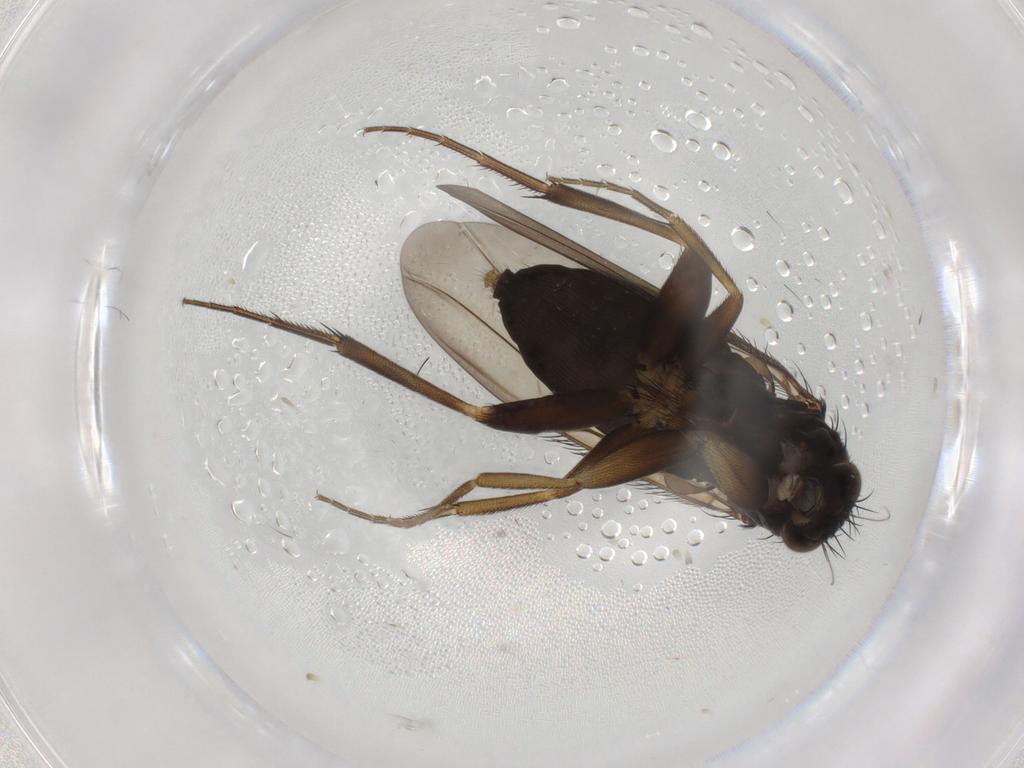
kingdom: Animalia
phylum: Arthropoda
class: Insecta
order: Diptera
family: Phoridae
